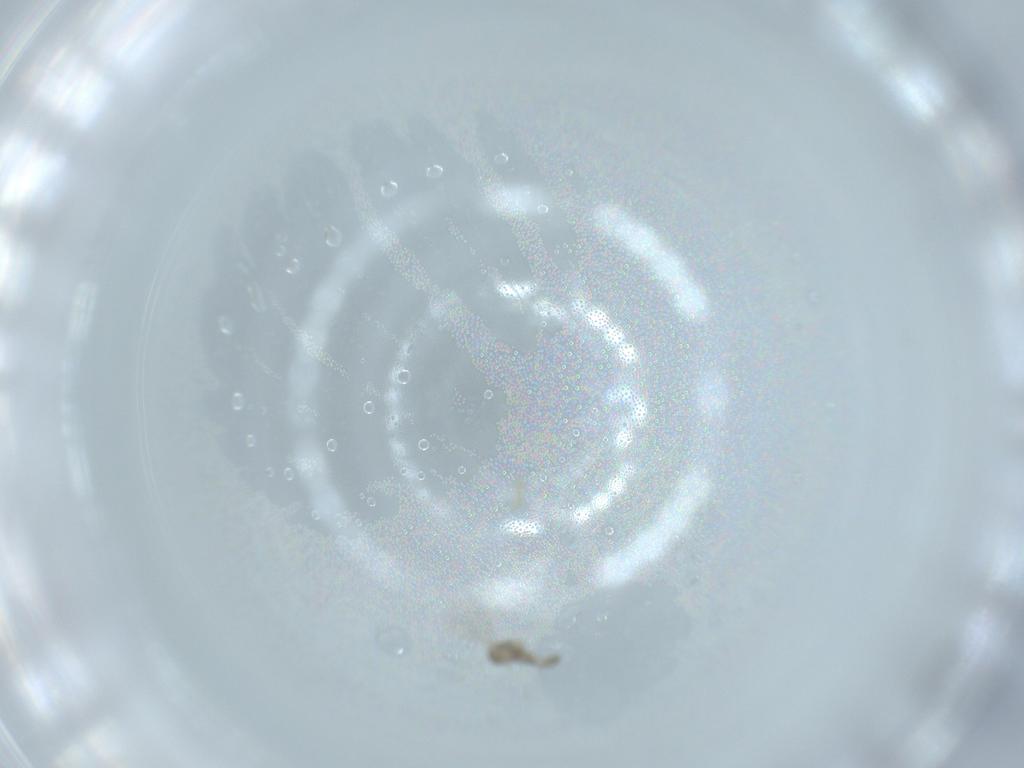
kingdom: Animalia
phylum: Arthropoda
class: Insecta
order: Diptera
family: Cecidomyiidae
